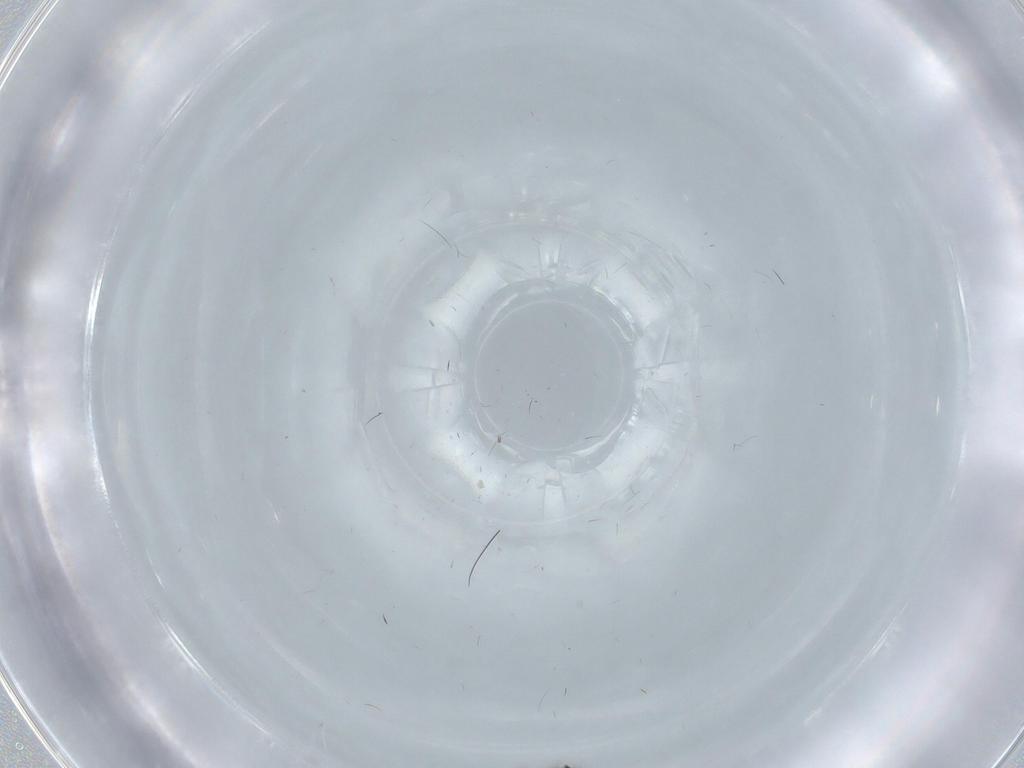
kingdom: Animalia
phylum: Arthropoda
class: Insecta
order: Diptera
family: Psychodidae
